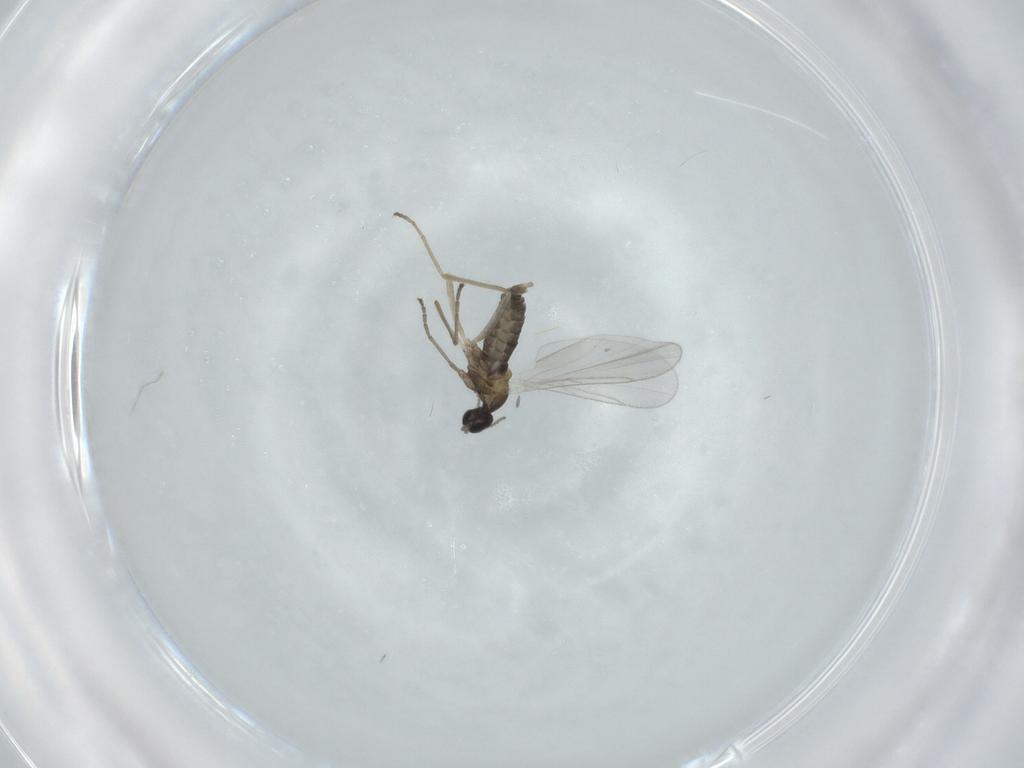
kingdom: Animalia
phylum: Arthropoda
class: Insecta
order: Diptera
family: Cecidomyiidae
